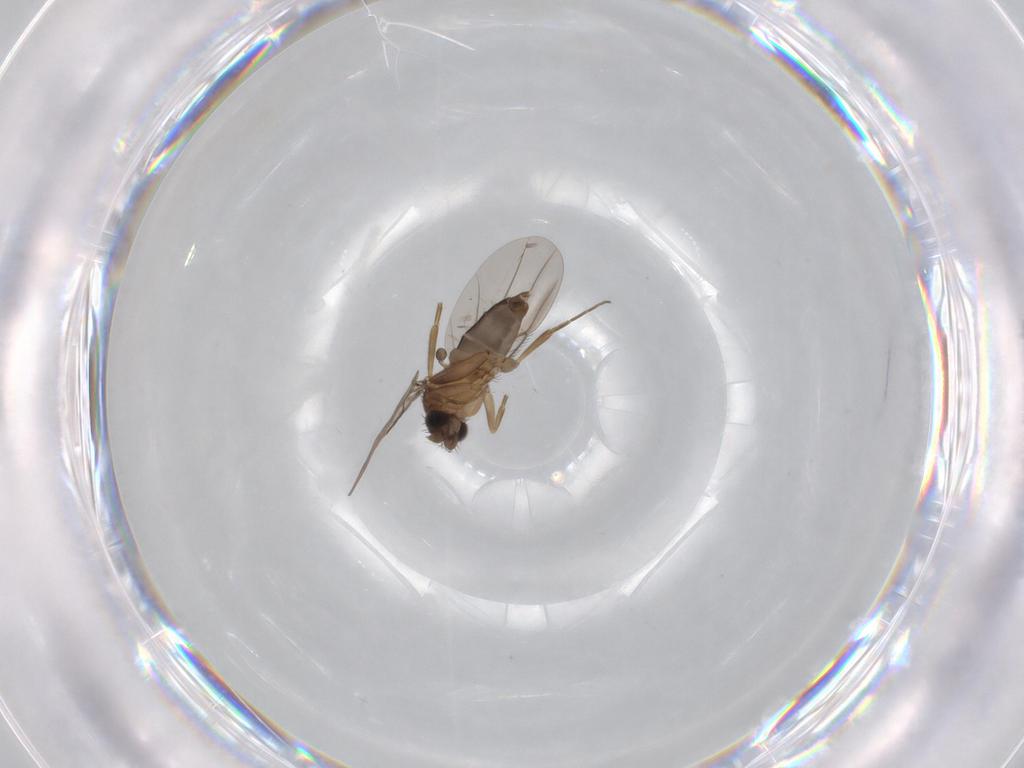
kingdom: Animalia
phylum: Arthropoda
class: Insecta
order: Diptera
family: Phoridae
